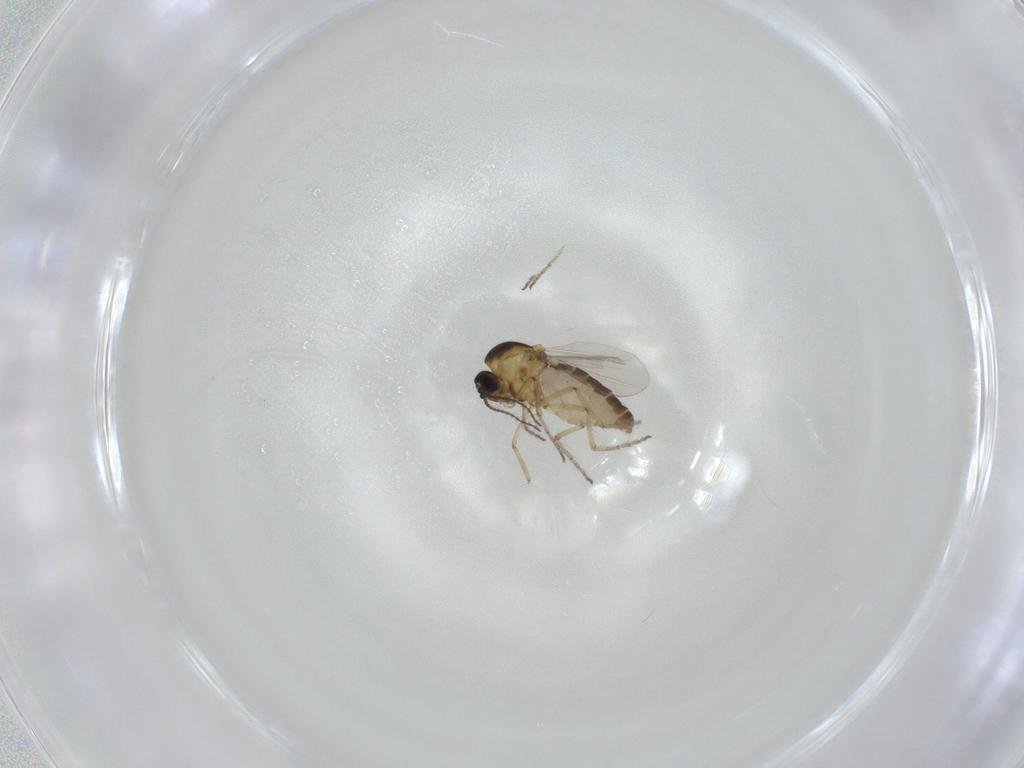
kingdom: Animalia
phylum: Arthropoda
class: Insecta
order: Diptera
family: Ceratopogonidae
